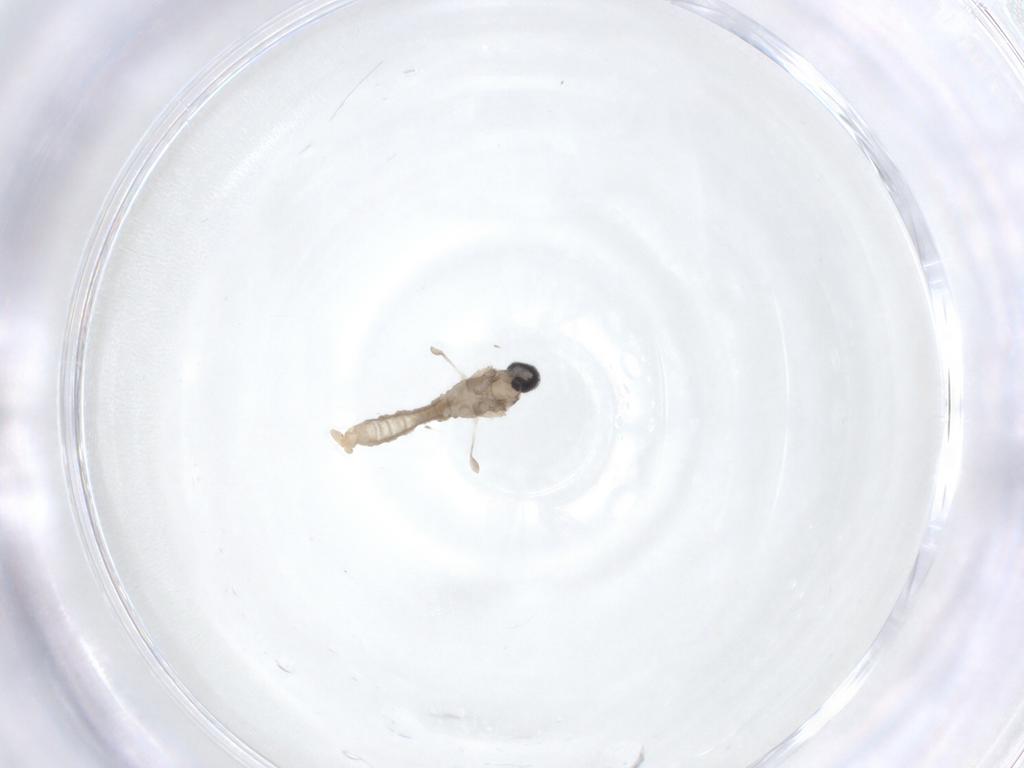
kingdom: Animalia
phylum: Arthropoda
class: Insecta
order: Diptera
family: Cecidomyiidae
